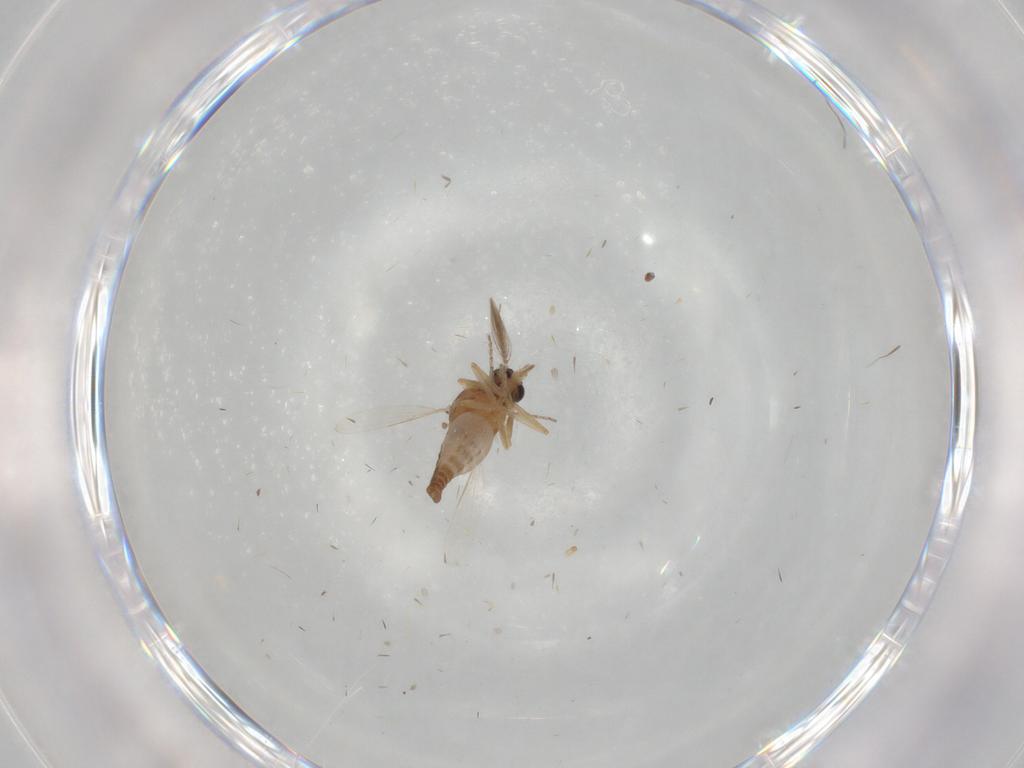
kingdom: Animalia
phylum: Arthropoda
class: Insecta
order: Diptera
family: Ceratopogonidae
